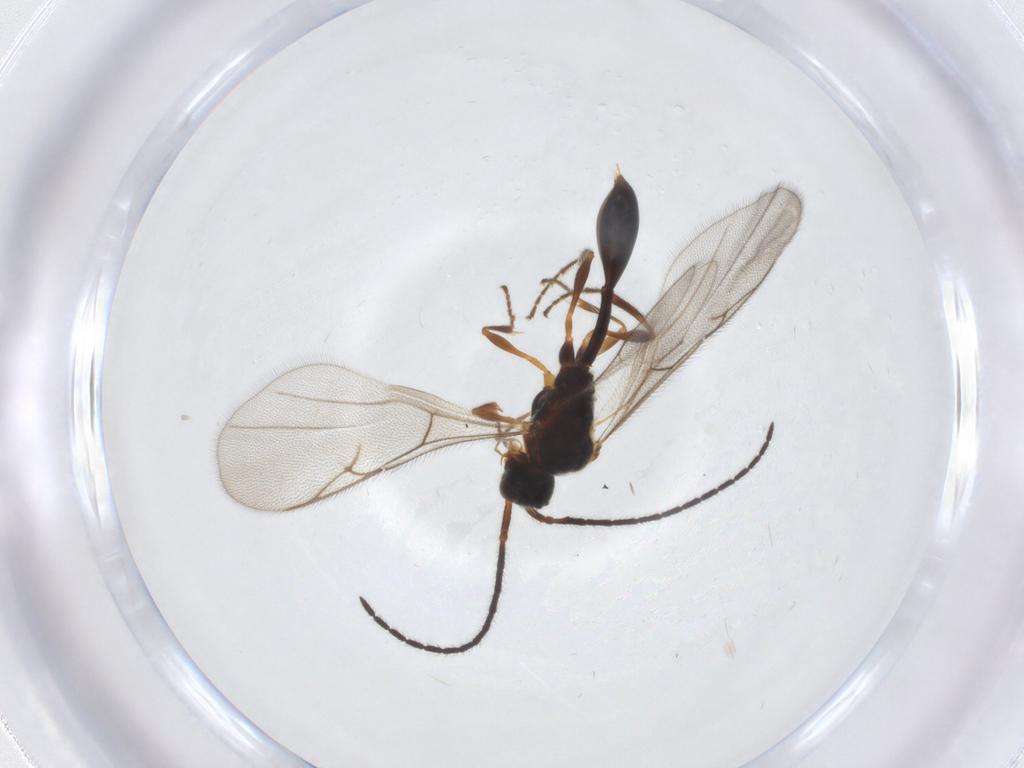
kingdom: Animalia
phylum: Arthropoda
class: Insecta
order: Hymenoptera
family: Diapriidae
